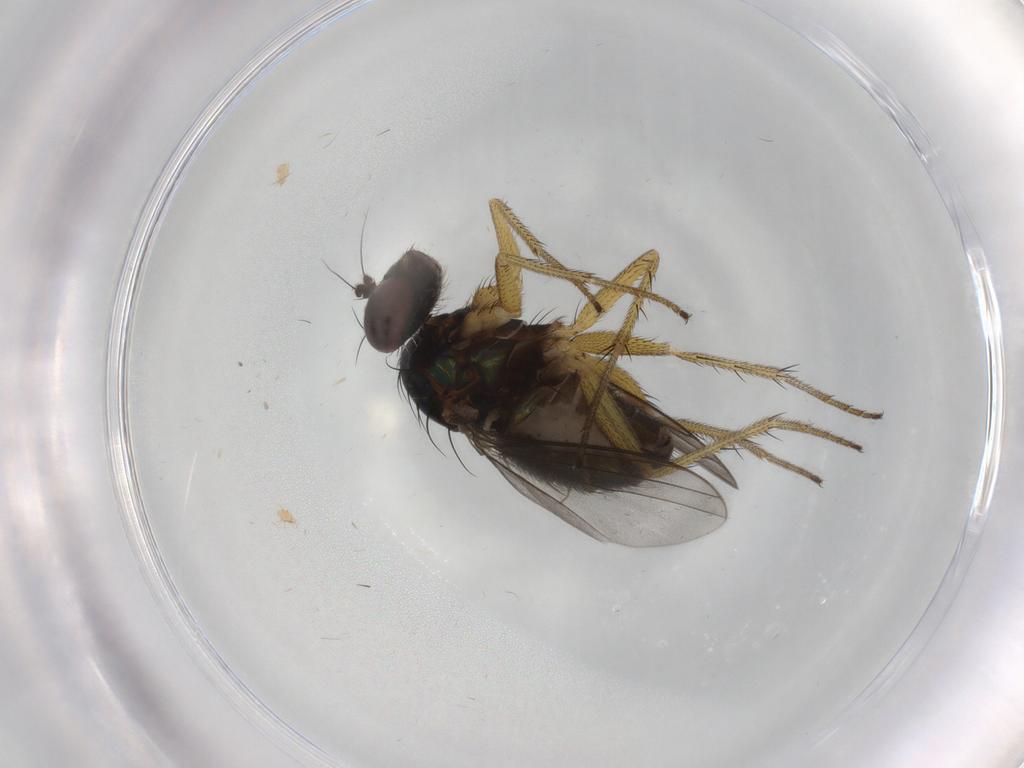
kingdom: Animalia
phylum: Arthropoda
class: Insecta
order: Diptera
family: Dolichopodidae
